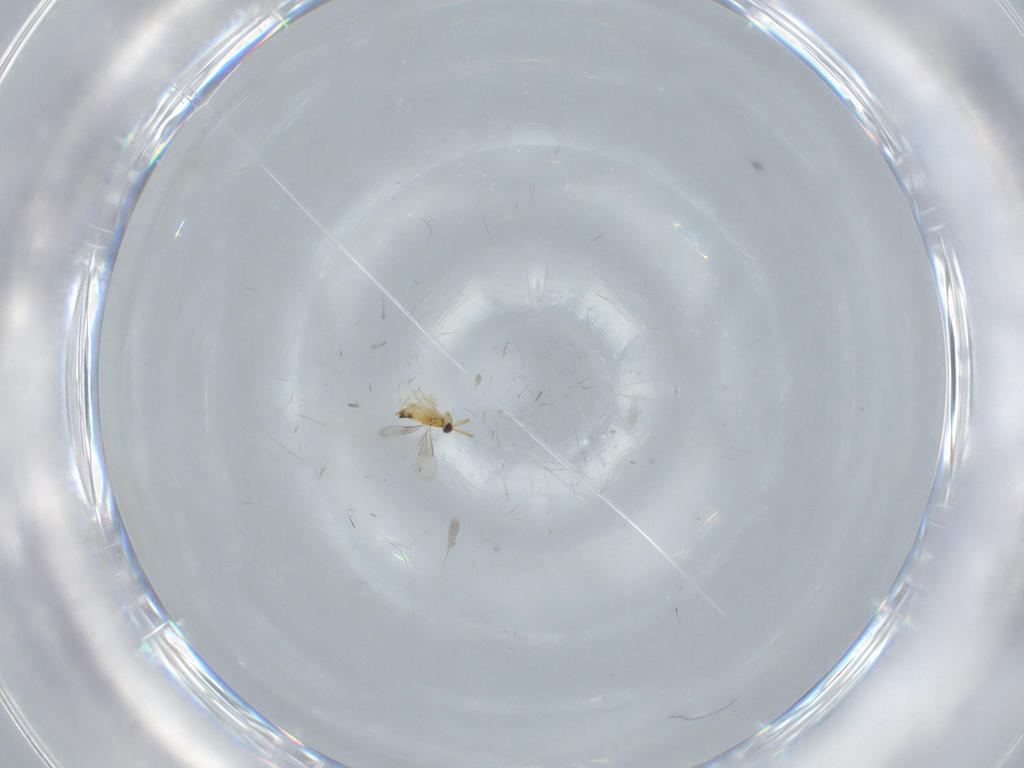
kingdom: Animalia
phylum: Arthropoda
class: Insecta
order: Hymenoptera
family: Aphelinidae
